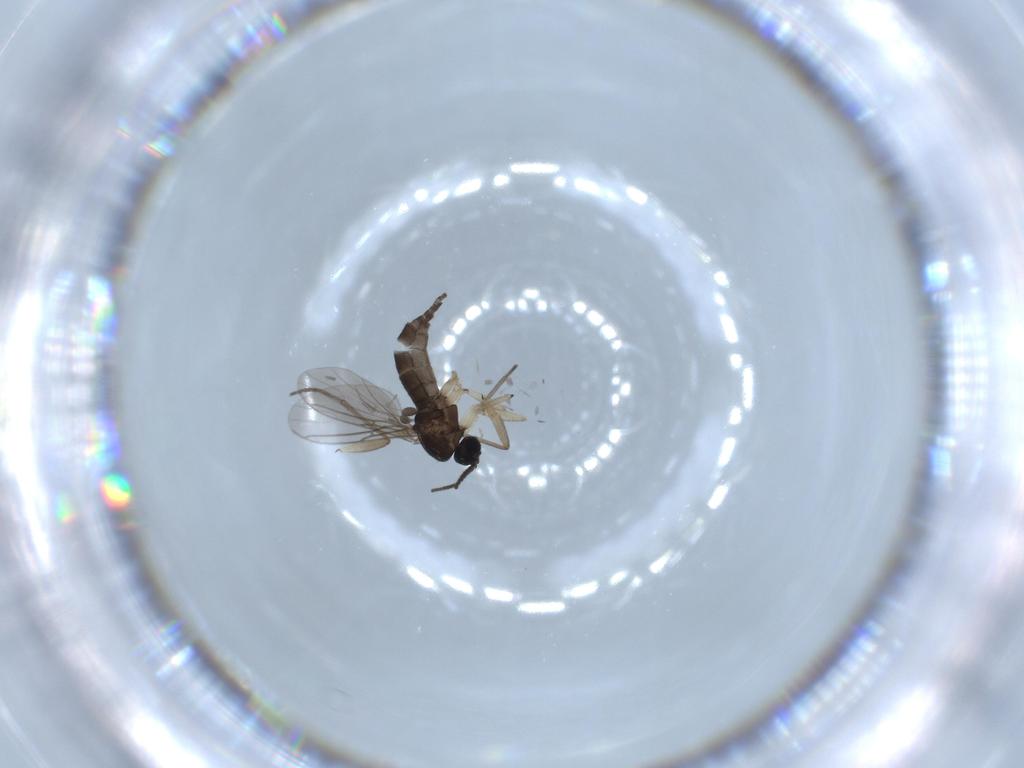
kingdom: Animalia
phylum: Arthropoda
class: Insecta
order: Diptera
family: Sciaridae
